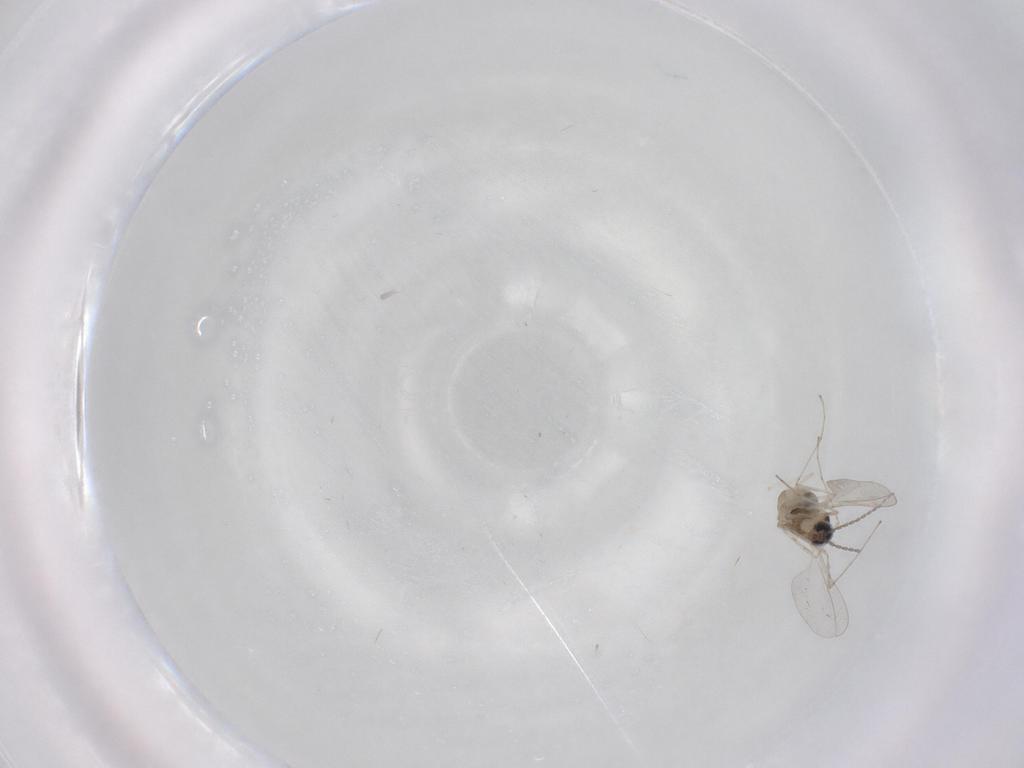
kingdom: Animalia
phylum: Arthropoda
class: Insecta
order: Diptera
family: Cecidomyiidae
